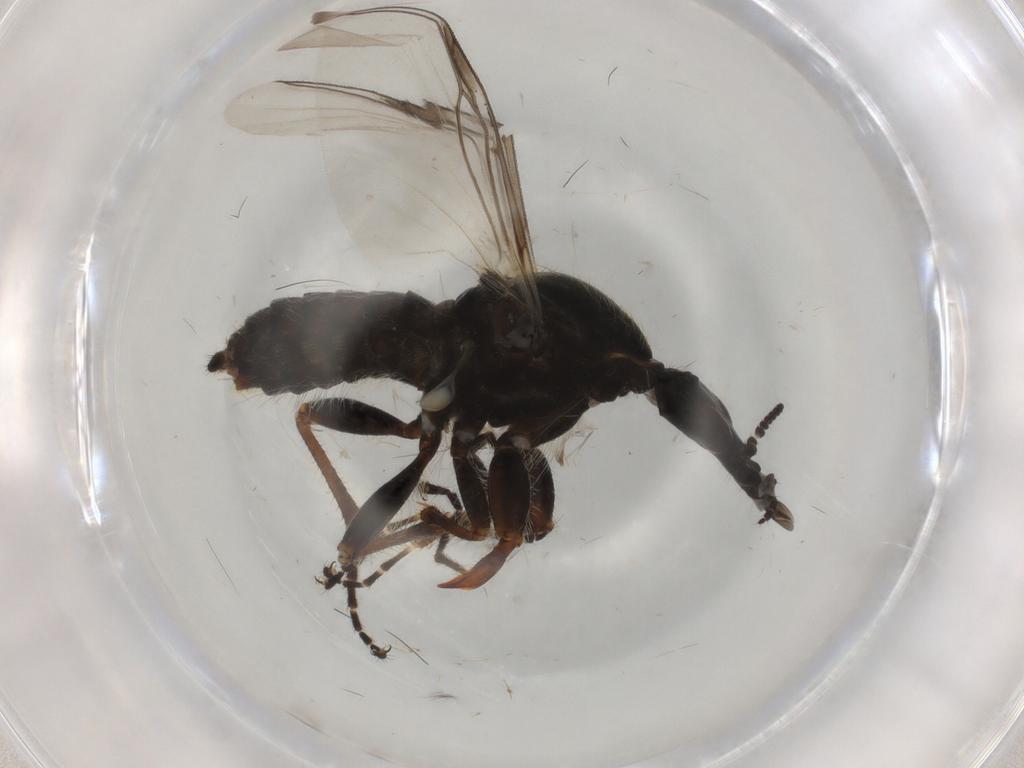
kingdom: Animalia
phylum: Arthropoda
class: Insecta
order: Diptera
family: Bibionidae
